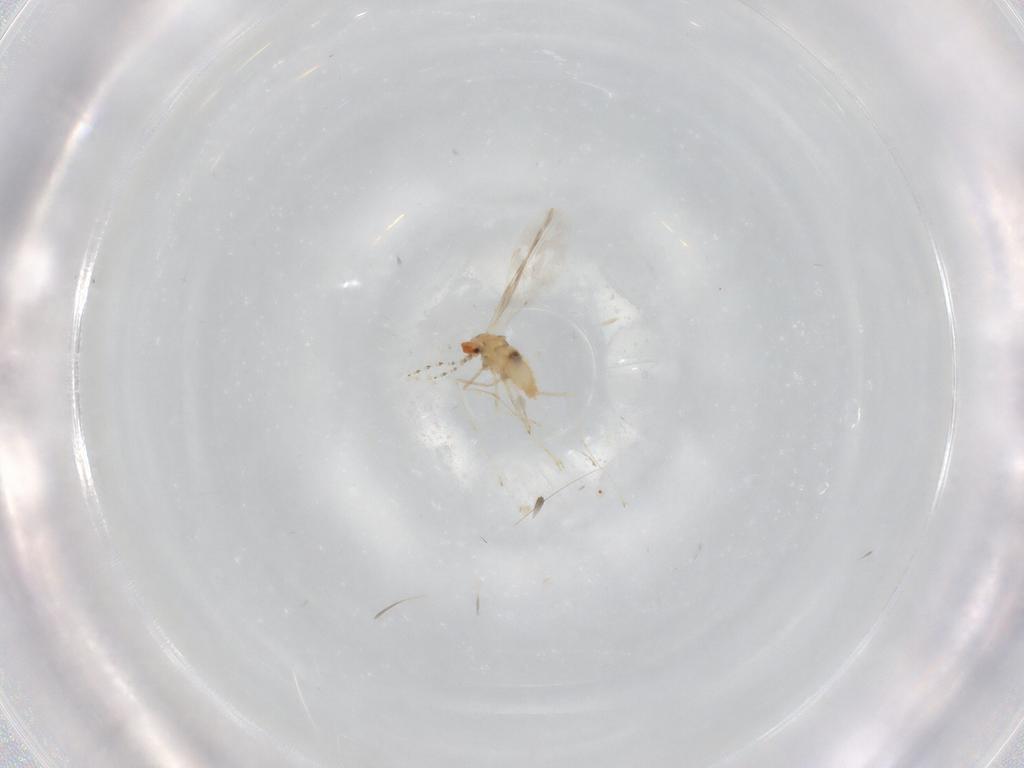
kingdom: Animalia
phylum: Arthropoda
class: Insecta
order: Diptera
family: Cecidomyiidae
